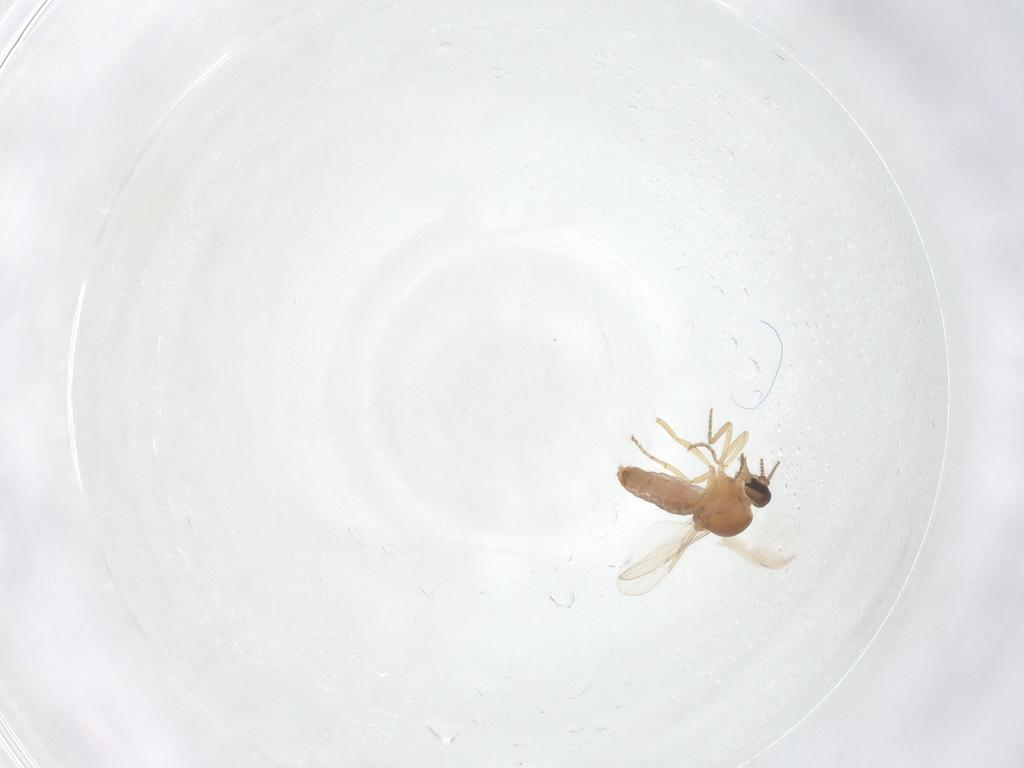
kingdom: Animalia
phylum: Arthropoda
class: Insecta
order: Diptera
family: Ceratopogonidae
